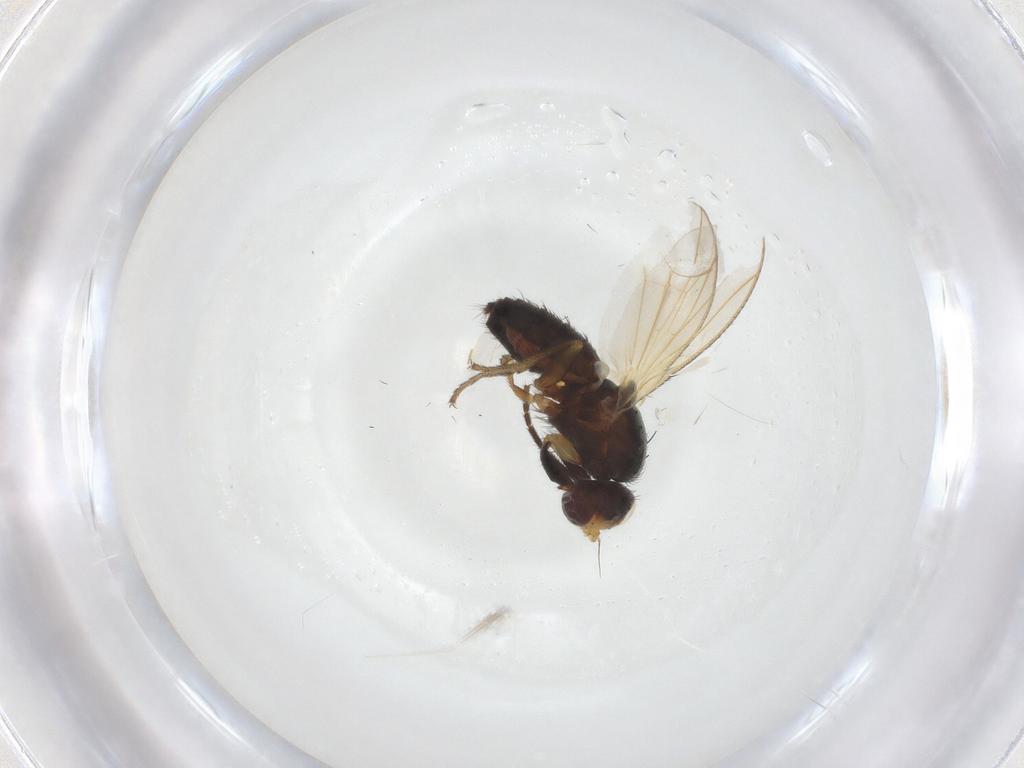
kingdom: Animalia
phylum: Arthropoda
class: Insecta
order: Diptera
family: Heleomyzidae
